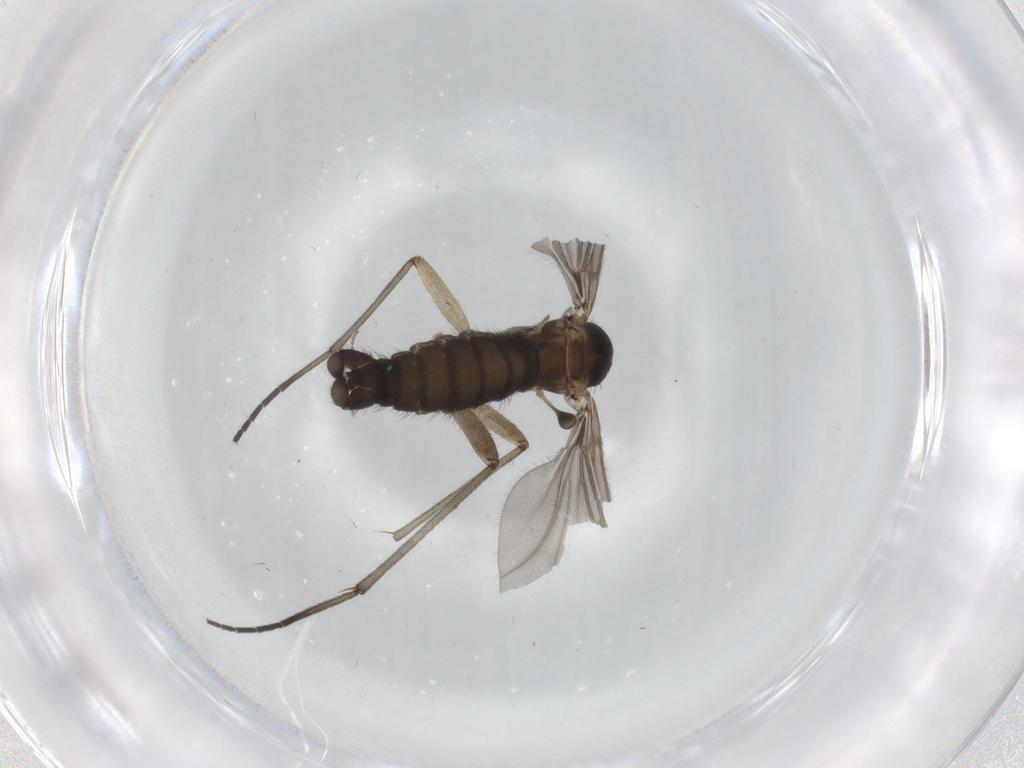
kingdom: Animalia
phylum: Arthropoda
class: Insecta
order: Diptera
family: Sciaridae
